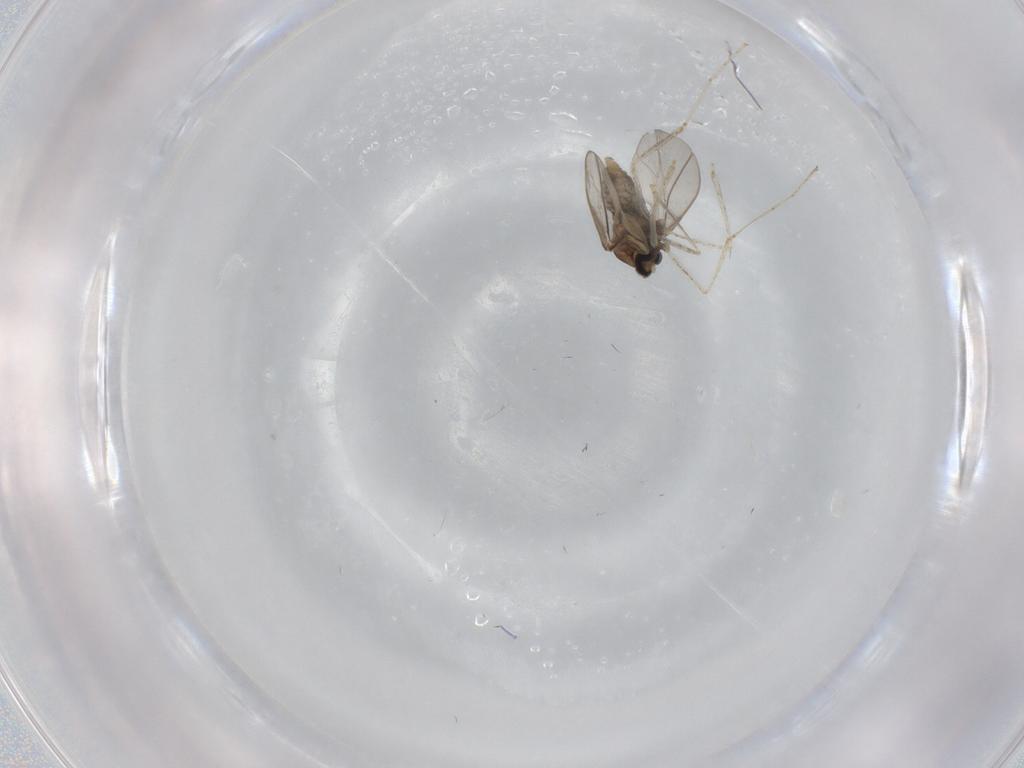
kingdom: Animalia
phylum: Arthropoda
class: Insecta
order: Diptera
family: Cecidomyiidae
